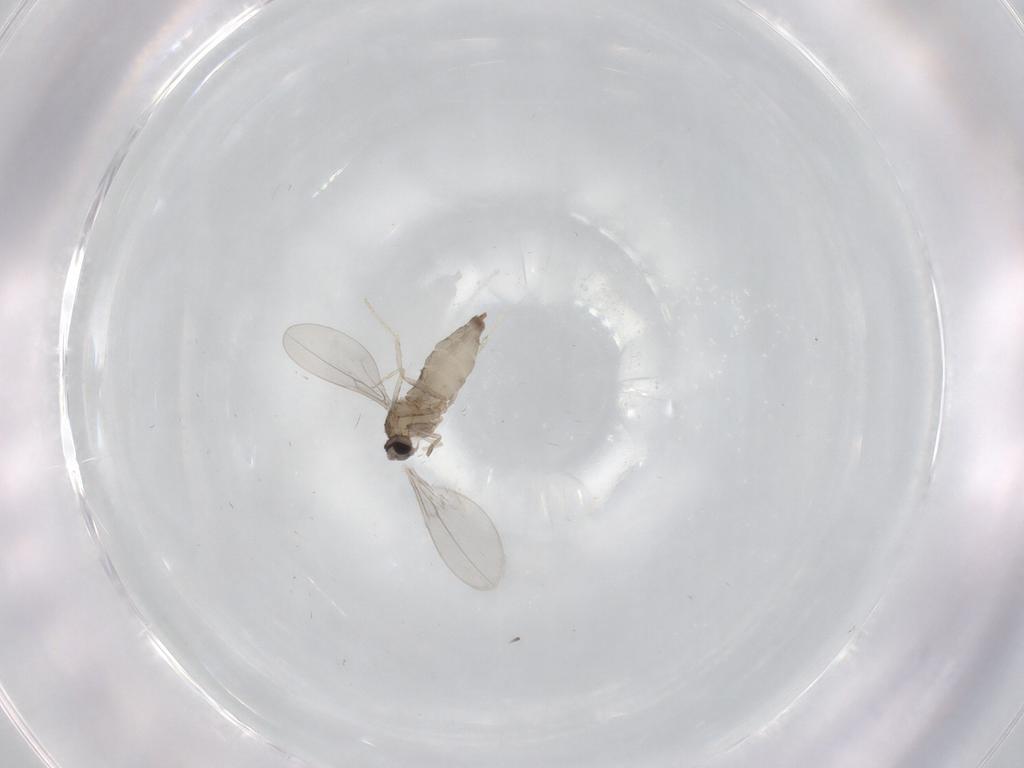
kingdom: Animalia
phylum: Arthropoda
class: Insecta
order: Diptera
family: Cecidomyiidae
